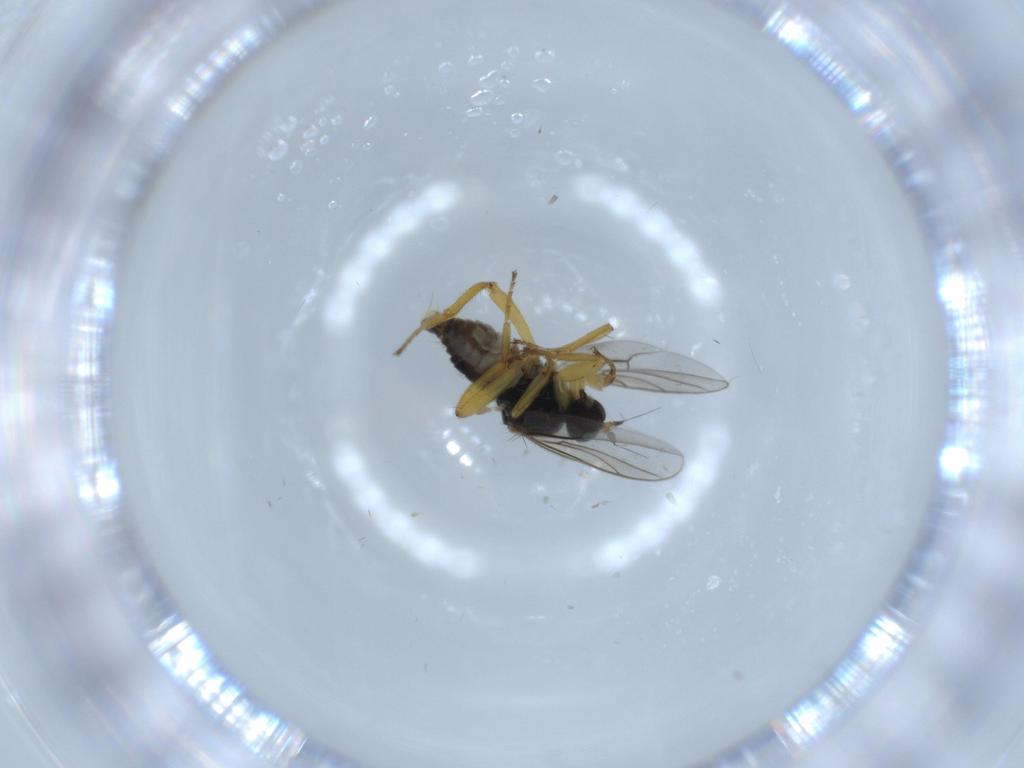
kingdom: Animalia
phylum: Arthropoda
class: Insecta
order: Diptera
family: Hybotidae
